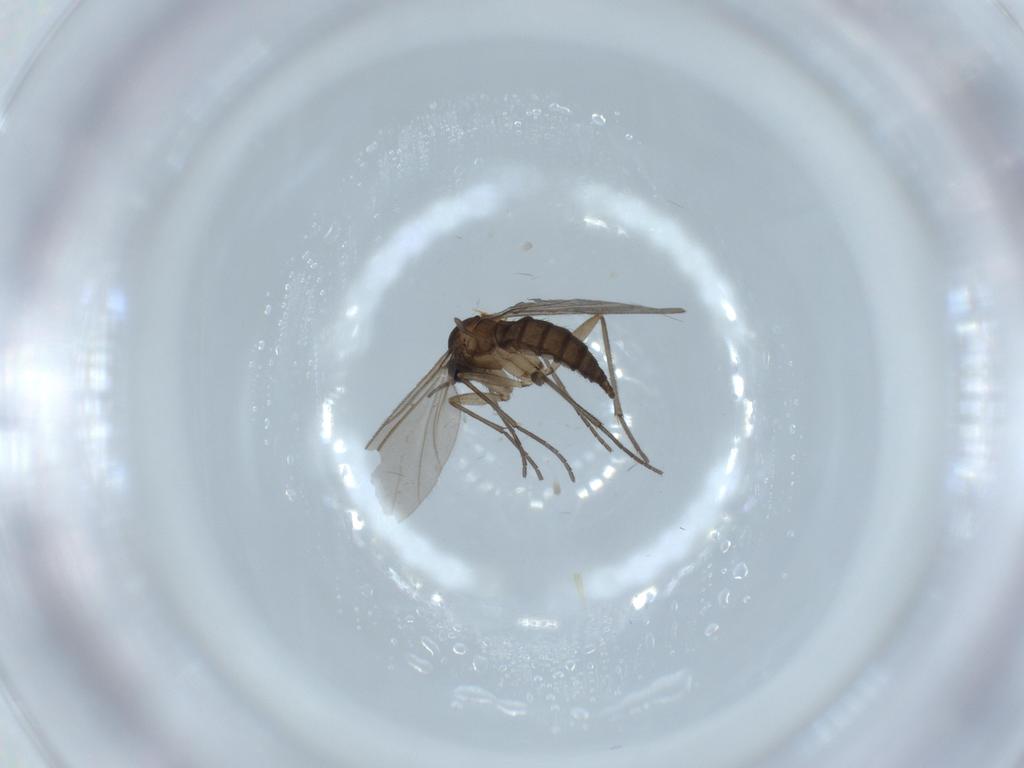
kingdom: Animalia
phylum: Arthropoda
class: Insecta
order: Diptera
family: Sciaridae
